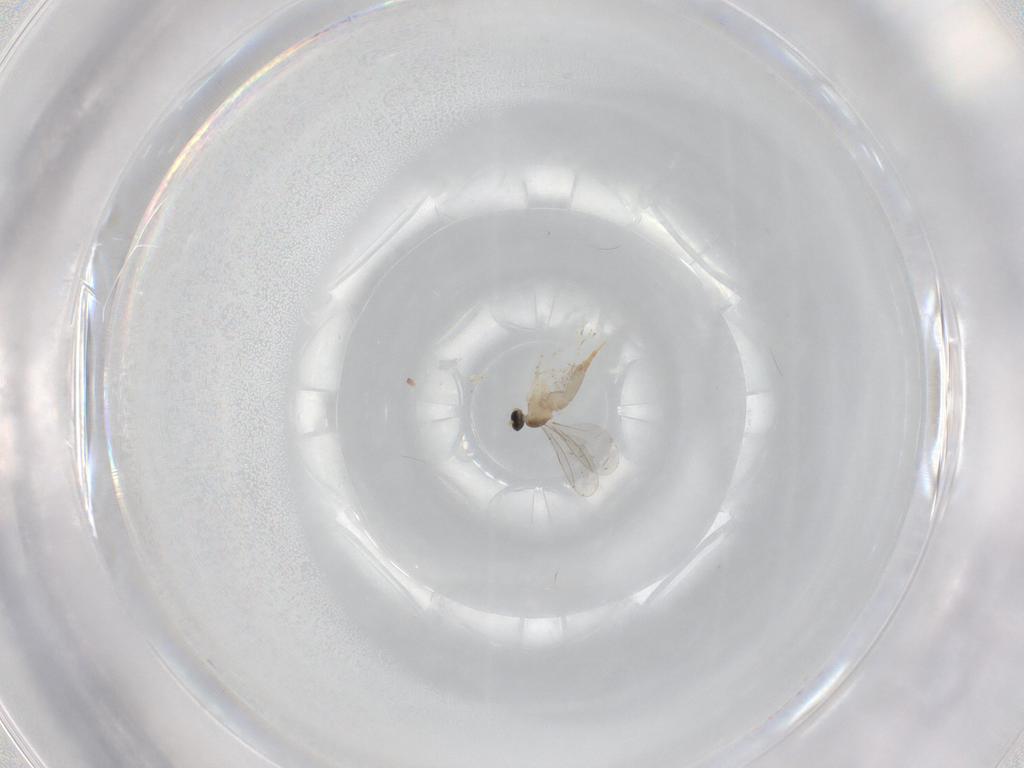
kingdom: Animalia
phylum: Arthropoda
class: Insecta
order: Diptera
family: Cecidomyiidae
